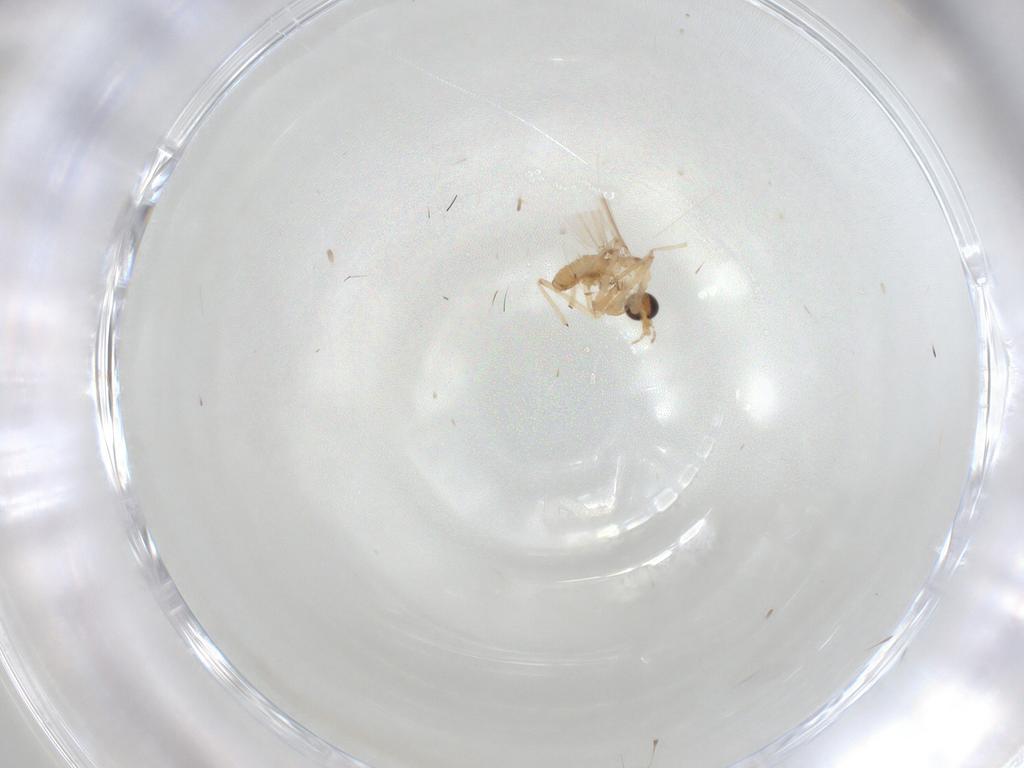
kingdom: Animalia
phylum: Arthropoda
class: Insecta
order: Diptera
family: Chironomidae
